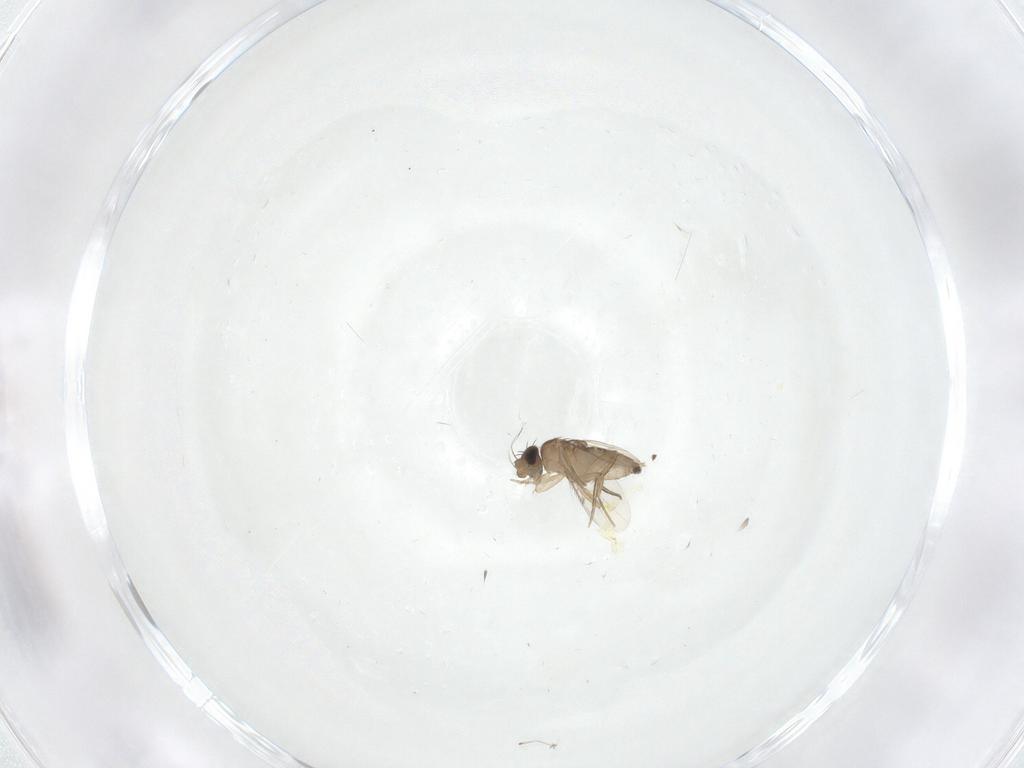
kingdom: Animalia
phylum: Arthropoda
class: Insecta
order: Diptera
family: Phoridae
